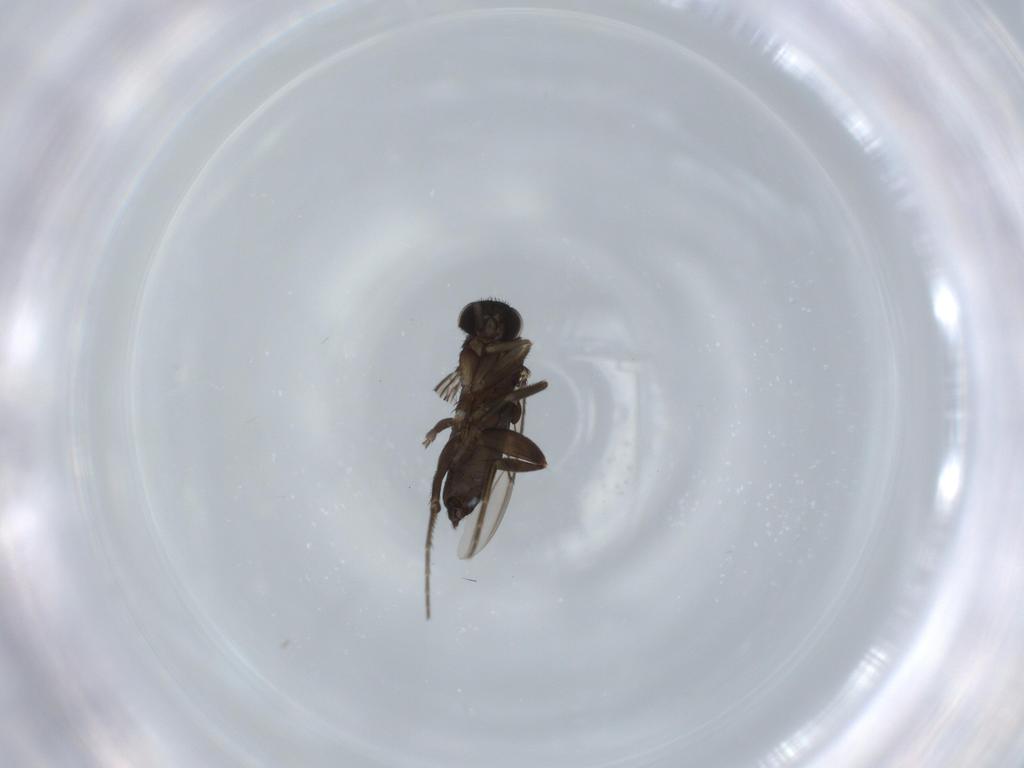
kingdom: Animalia
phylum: Arthropoda
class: Insecta
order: Diptera
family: Phoridae
